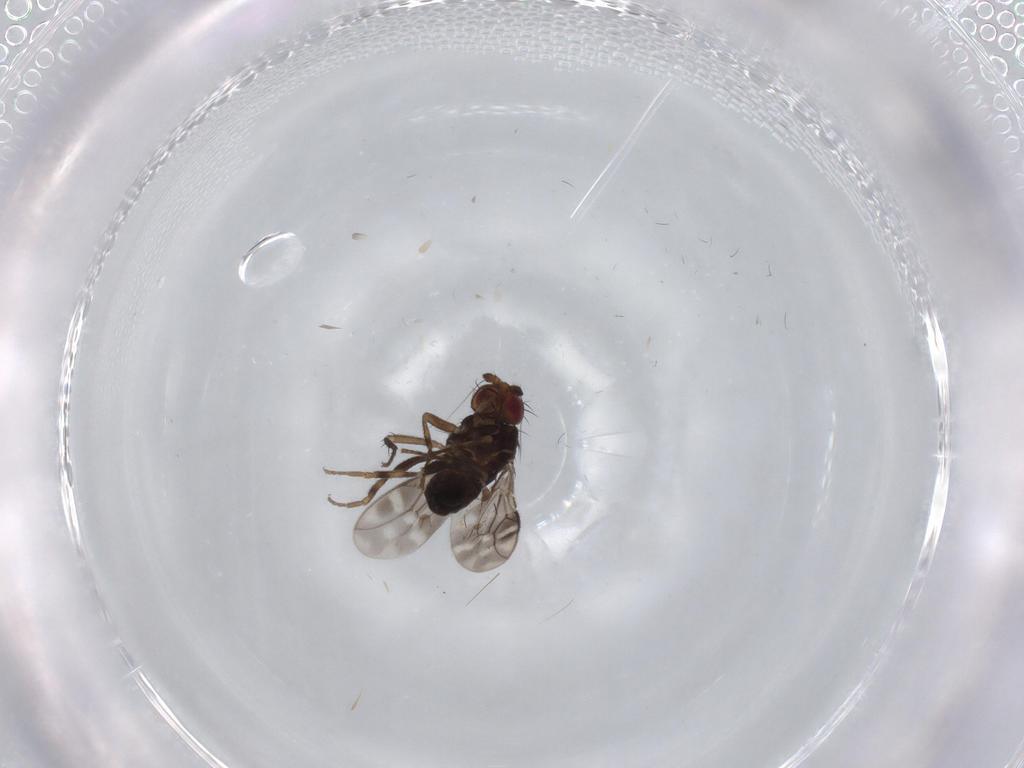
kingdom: Animalia
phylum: Arthropoda
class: Insecta
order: Diptera
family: Sphaeroceridae
